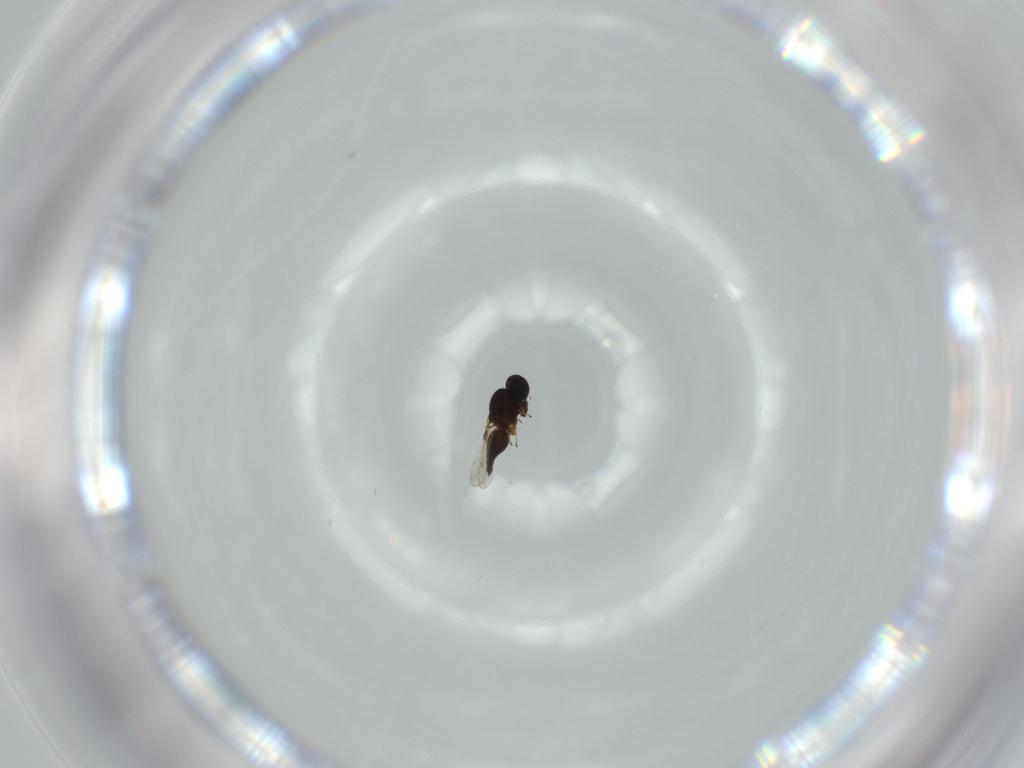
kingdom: Animalia
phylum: Arthropoda
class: Insecta
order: Hymenoptera
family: Platygastridae
